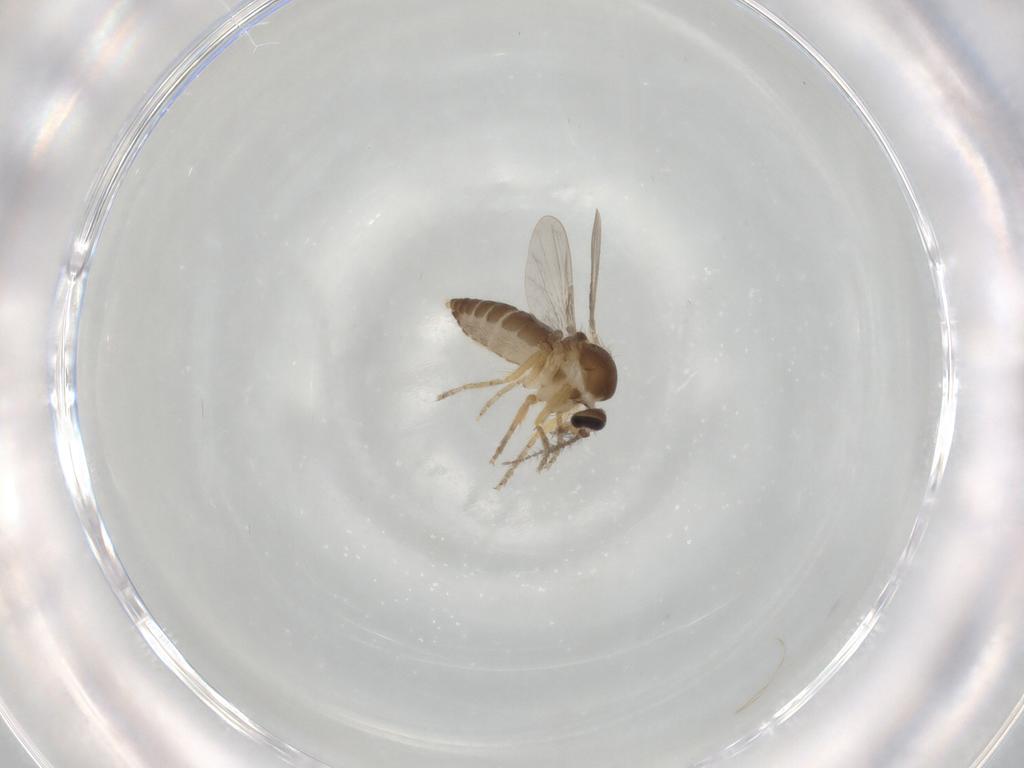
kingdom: Animalia
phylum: Arthropoda
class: Insecta
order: Diptera
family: Ceratopogonidae
